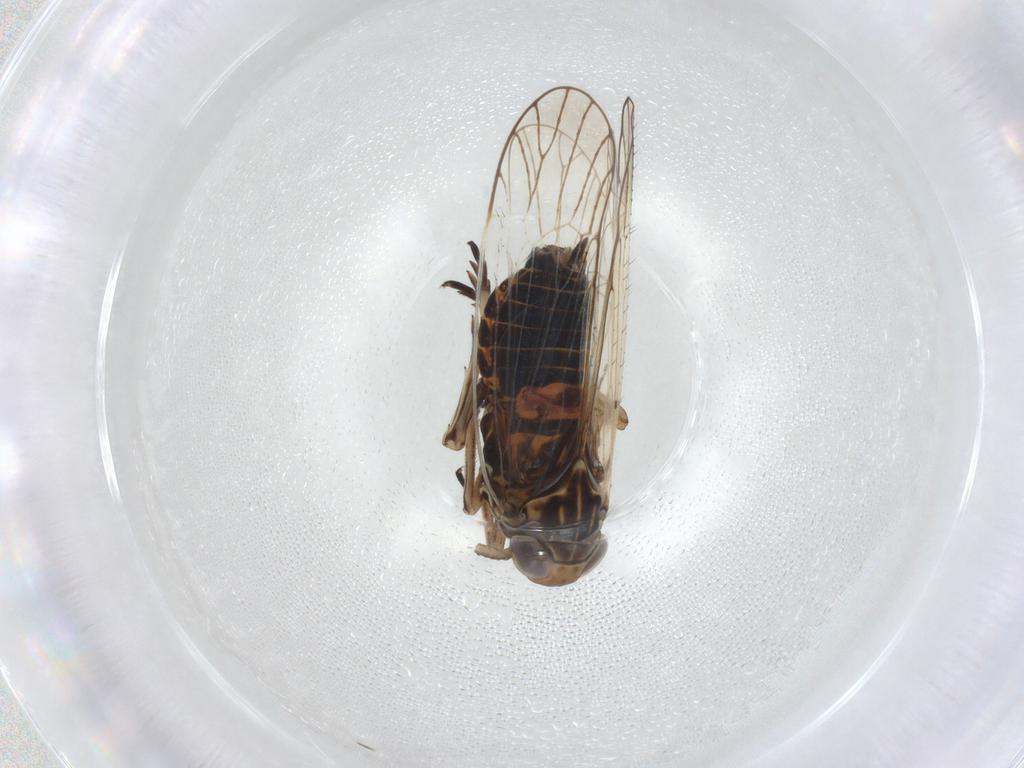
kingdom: Animalia
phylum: Arthropoda
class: Insecta
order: Hemiptera
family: Delphacidae
